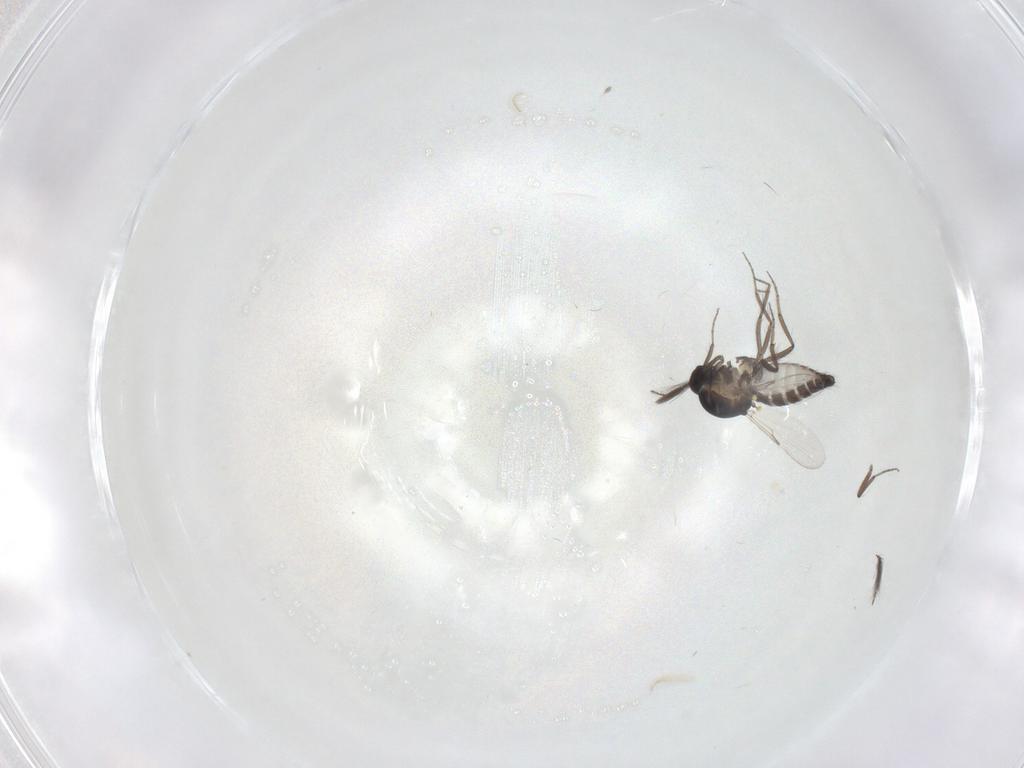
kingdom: Animalia
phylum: Arthropoda
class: Insecta
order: Diptera
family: Ceratopogonidae
